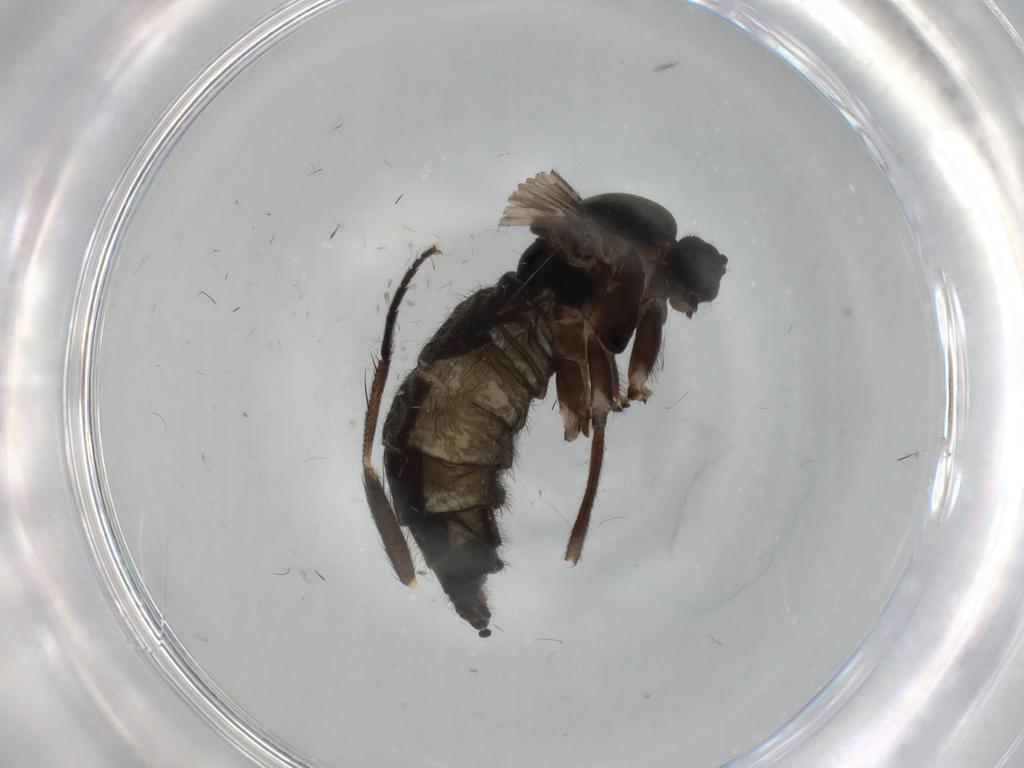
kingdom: Animalia
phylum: Arthropoda
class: Insecta
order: Diptera
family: Sciaridae
